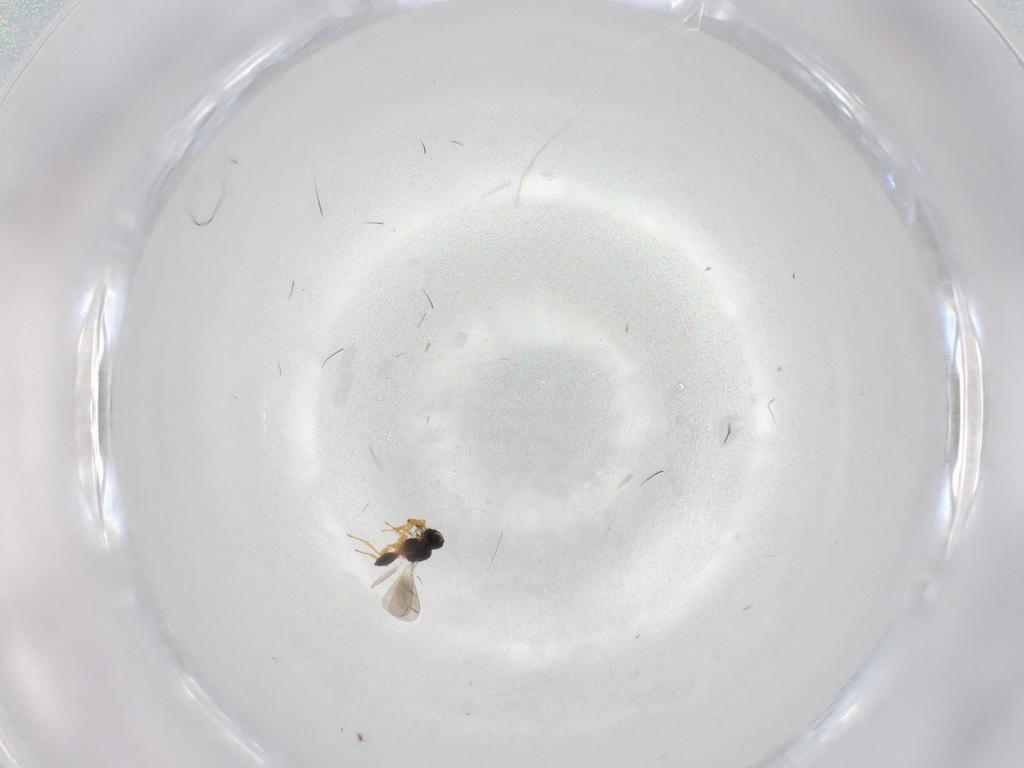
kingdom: Animalia
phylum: Arthropoda
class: Insecta
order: Hymenoptera
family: Platygastridae
